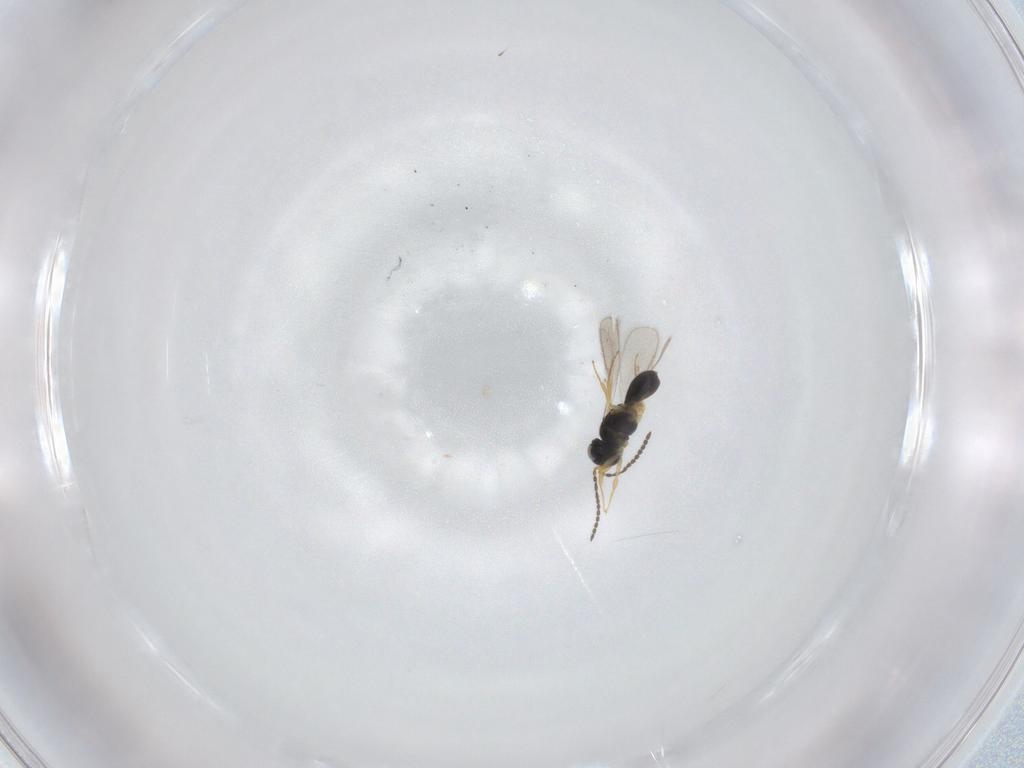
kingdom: Animalia
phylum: Arthropoda
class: Insecta
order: Hymenoptera
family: Scelionidae
